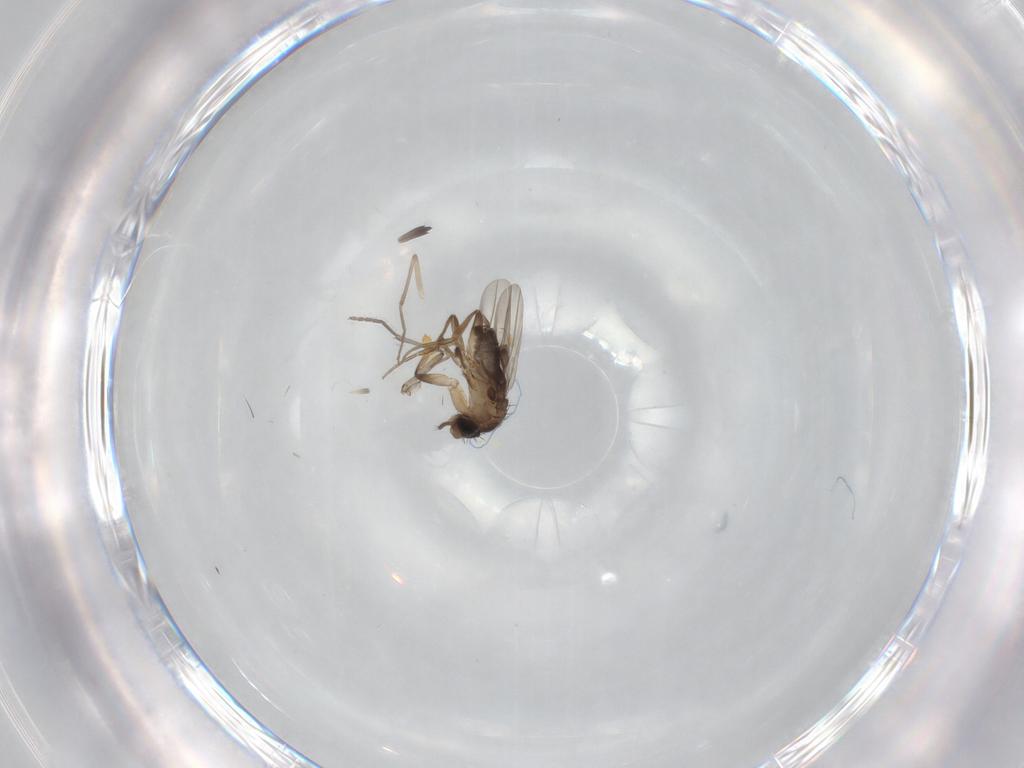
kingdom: Animalia
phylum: Arthropoda
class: Insecta
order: Diptera
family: Sciaridae
